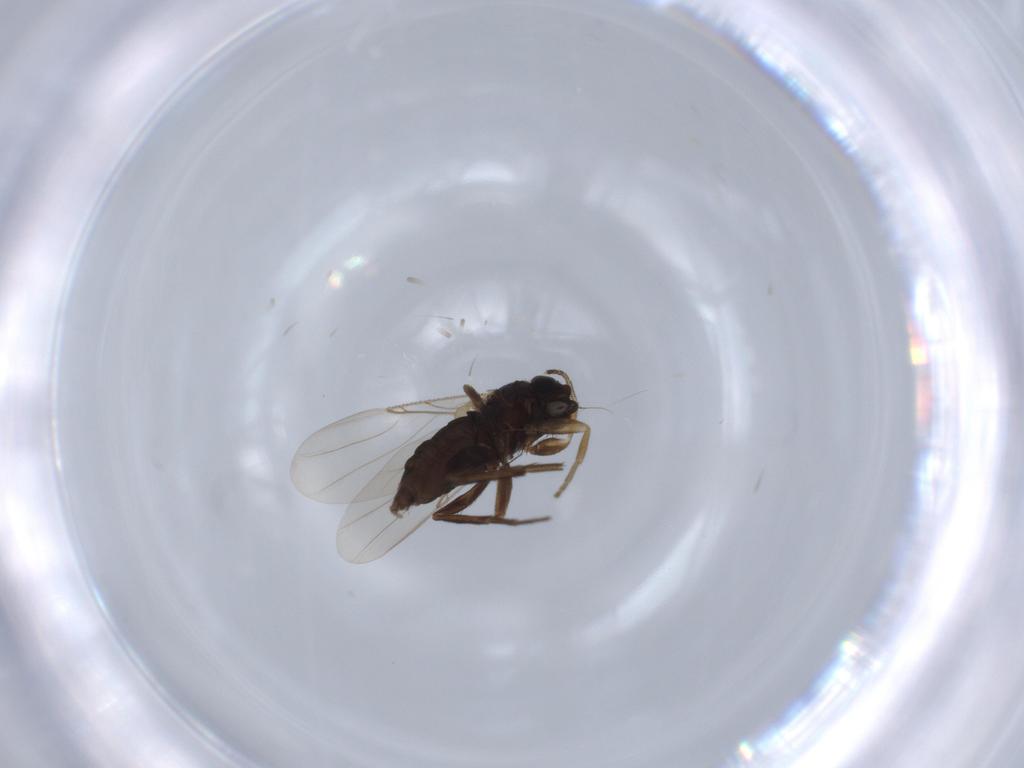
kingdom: Animalia
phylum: Arthropoda
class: Insecta
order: Diptera
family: Phoridae
